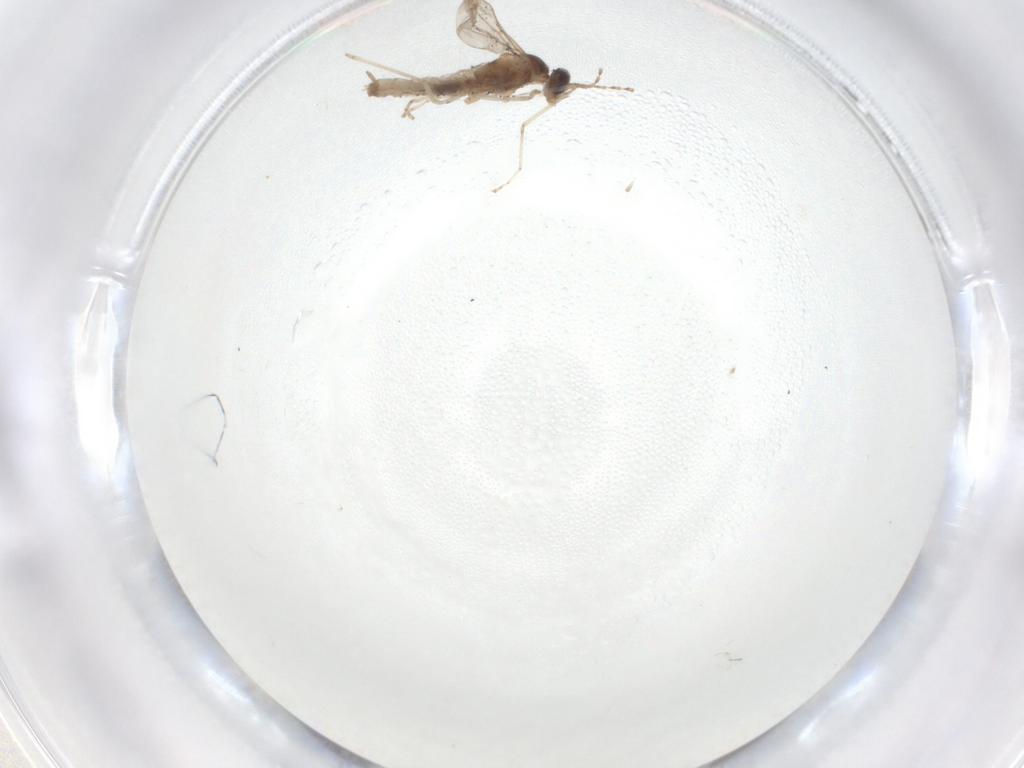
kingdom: Animalia
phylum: Arthropoda
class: Insecta
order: Diptera
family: Cecidomyiidae
